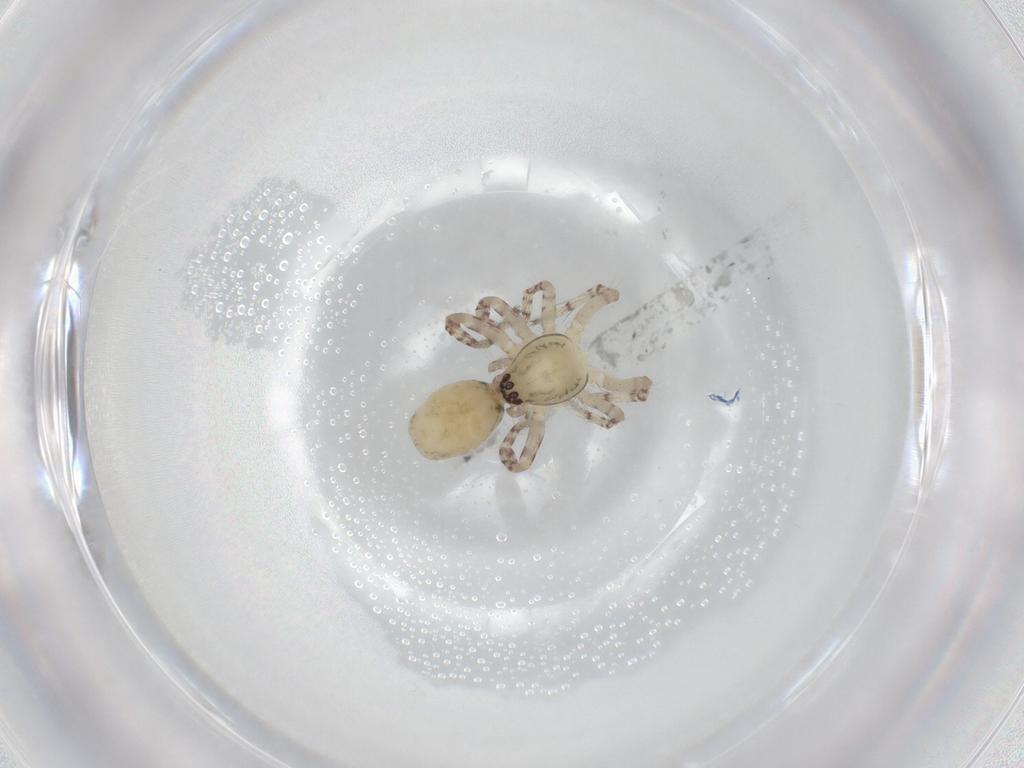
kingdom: Animalia
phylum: Arthropoda
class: Arachnida
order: Araneae
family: Anyphaenidae
